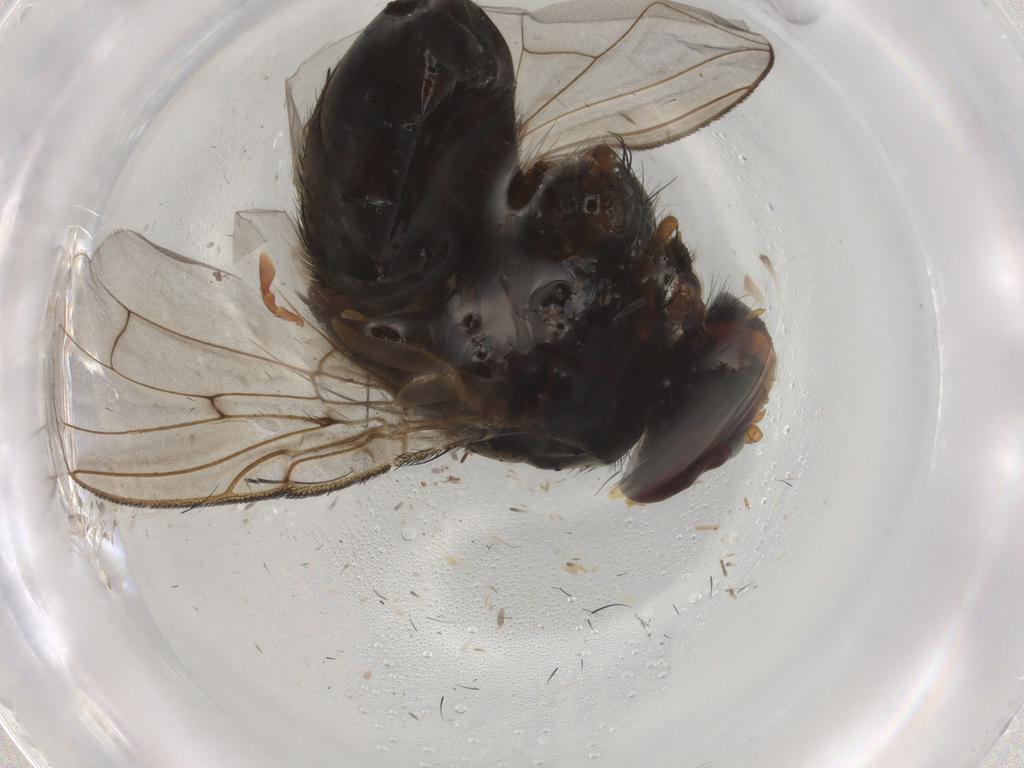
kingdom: Animalia
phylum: Arthropoda
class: Insecta
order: Diptera
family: Tachinidae
